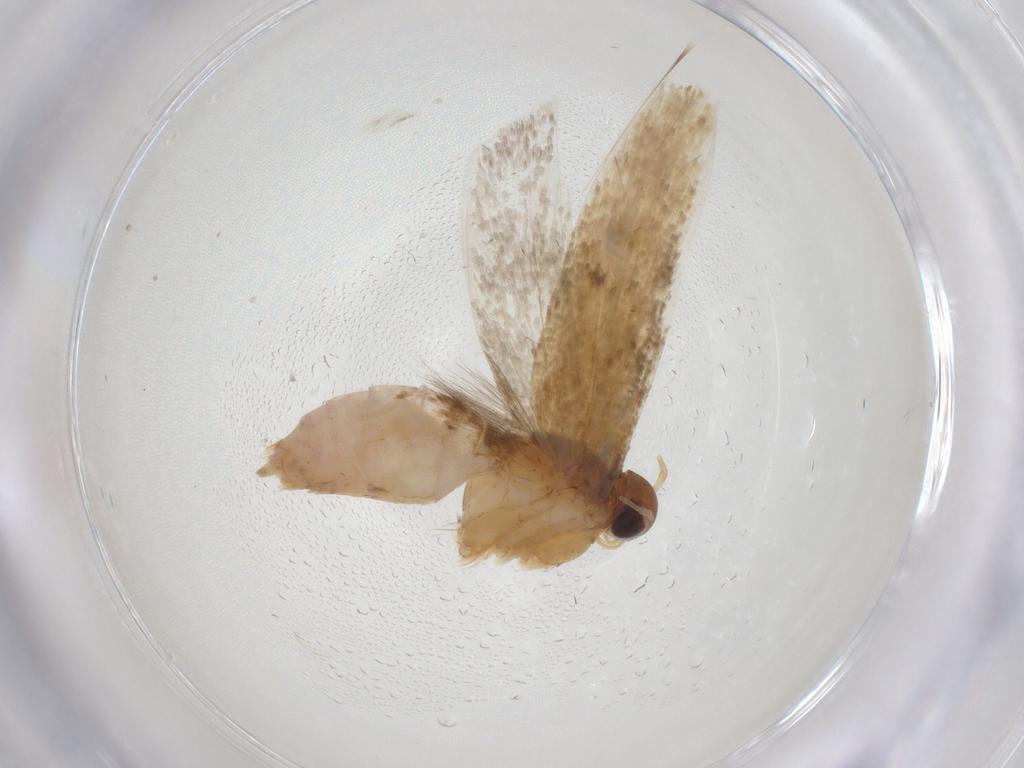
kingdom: Animalia
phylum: Arthropoda
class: Insecta
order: Lepidoptera
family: Gelechiidae
